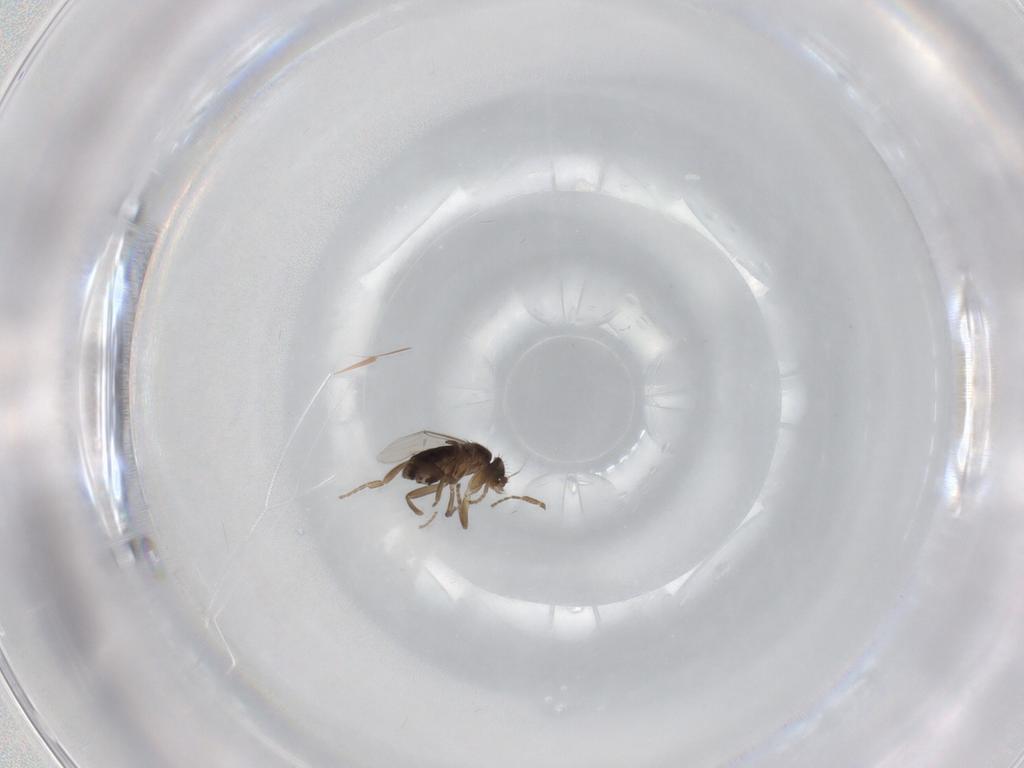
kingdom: Animalia
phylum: Arthropoda
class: Insecta
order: Diptera
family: Phoridae
